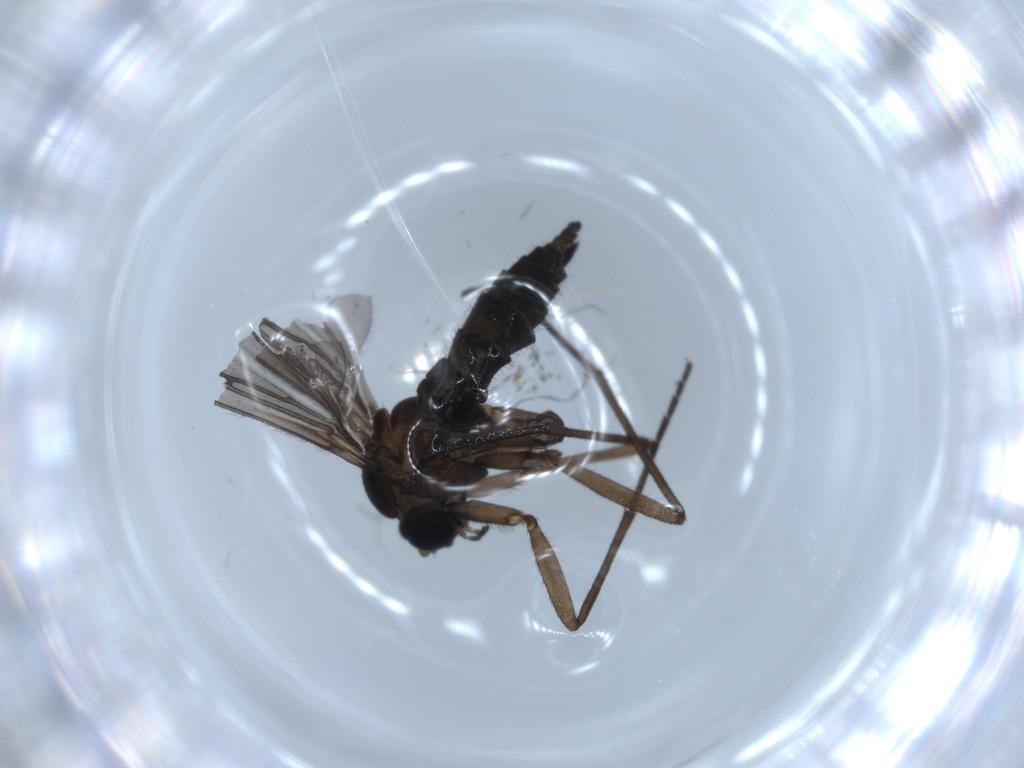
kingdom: Animalia
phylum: Arthropoda
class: Insecta
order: Diptera
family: Sciaridae
